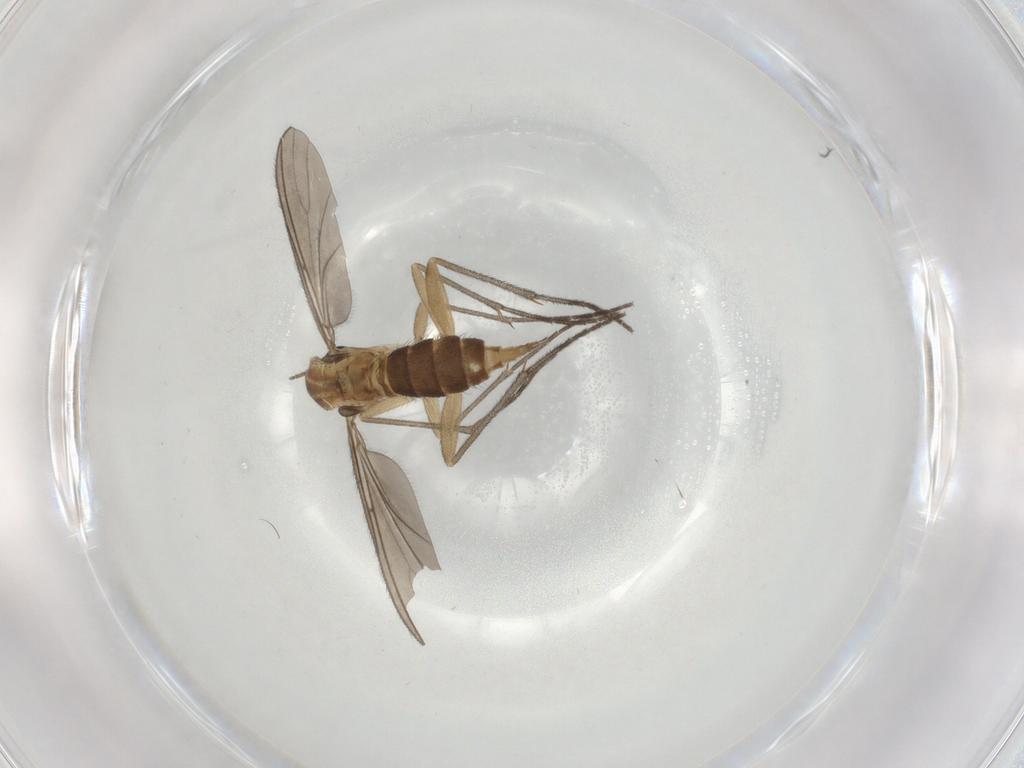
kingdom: Animalia
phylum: Arthropoda
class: Insecta
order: Diptera
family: Sciaridae
